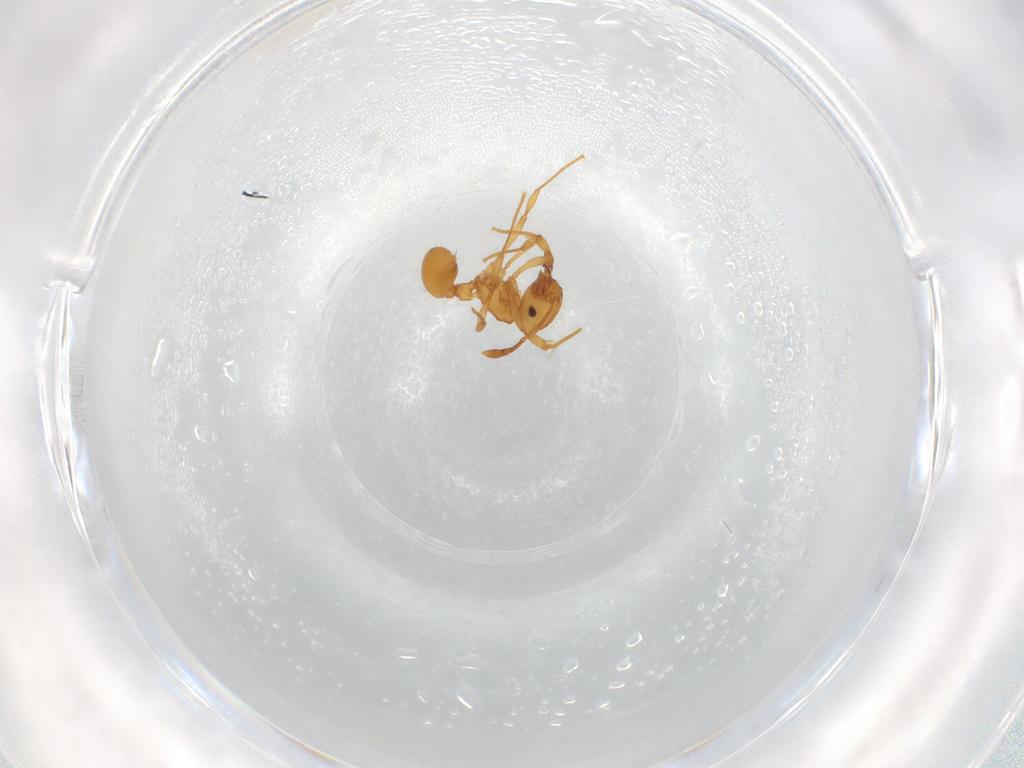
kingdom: Animalia
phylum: Arthropoda
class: Insecta
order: Hymenoptera
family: Formicidae
